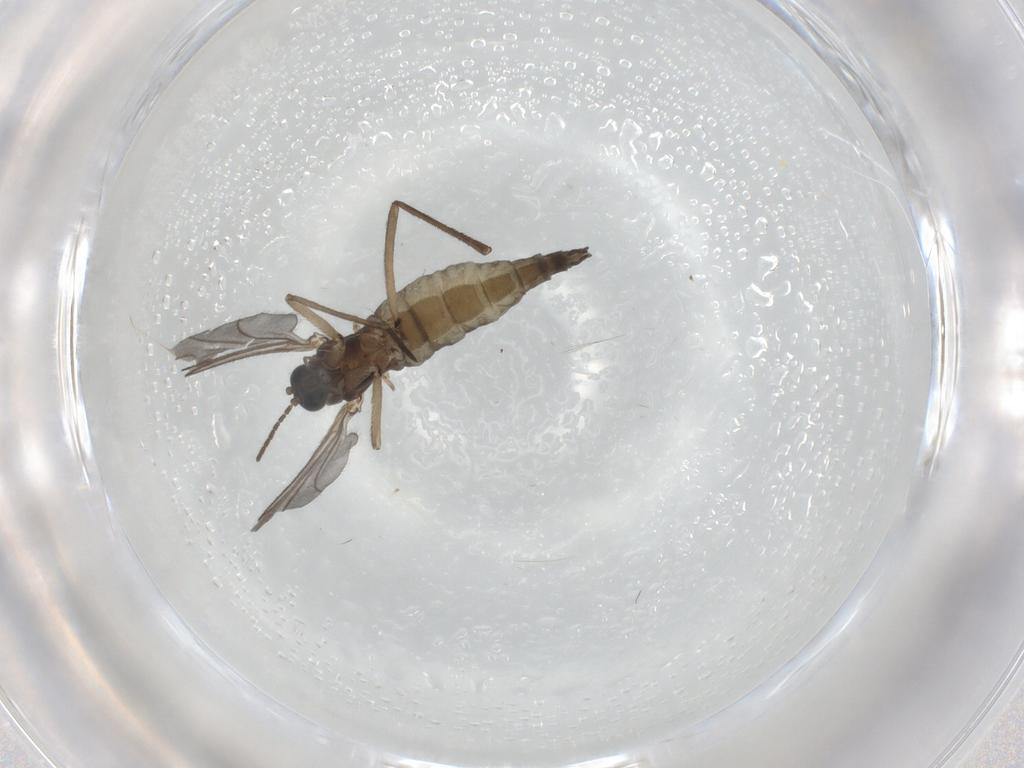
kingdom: Animalia
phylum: Arthropoda
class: Insecta
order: Diptera
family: Sciaridae
